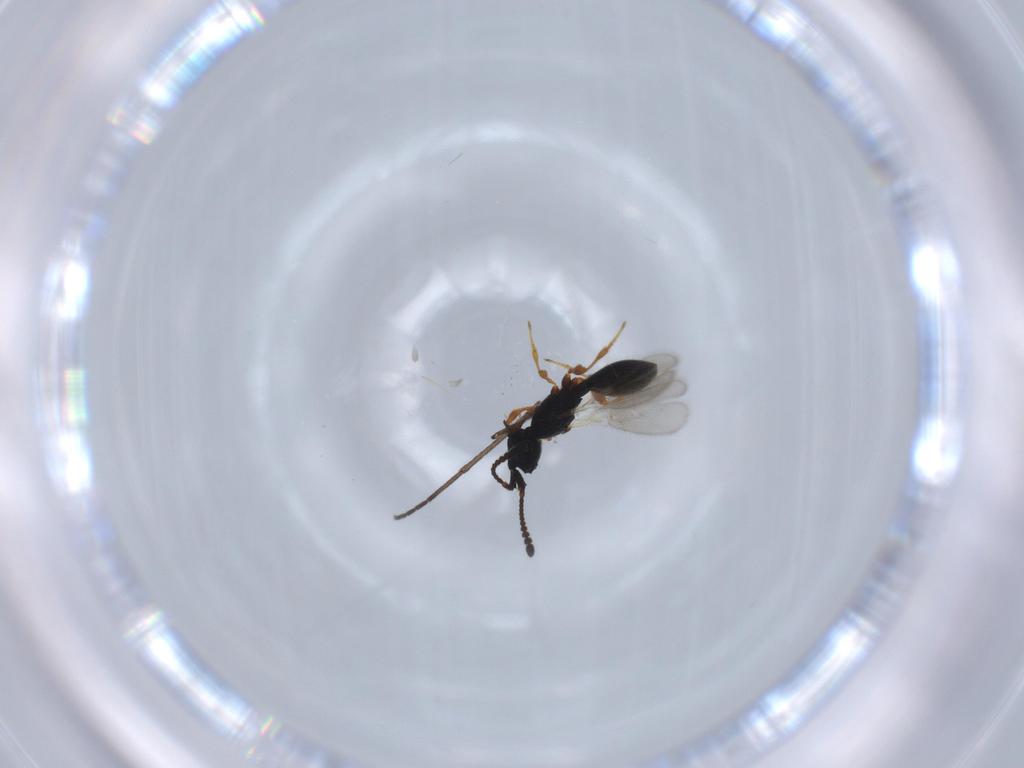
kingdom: Animalia
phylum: Arthropoda
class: Insecta
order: Hymenoptera
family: Diapriidae
